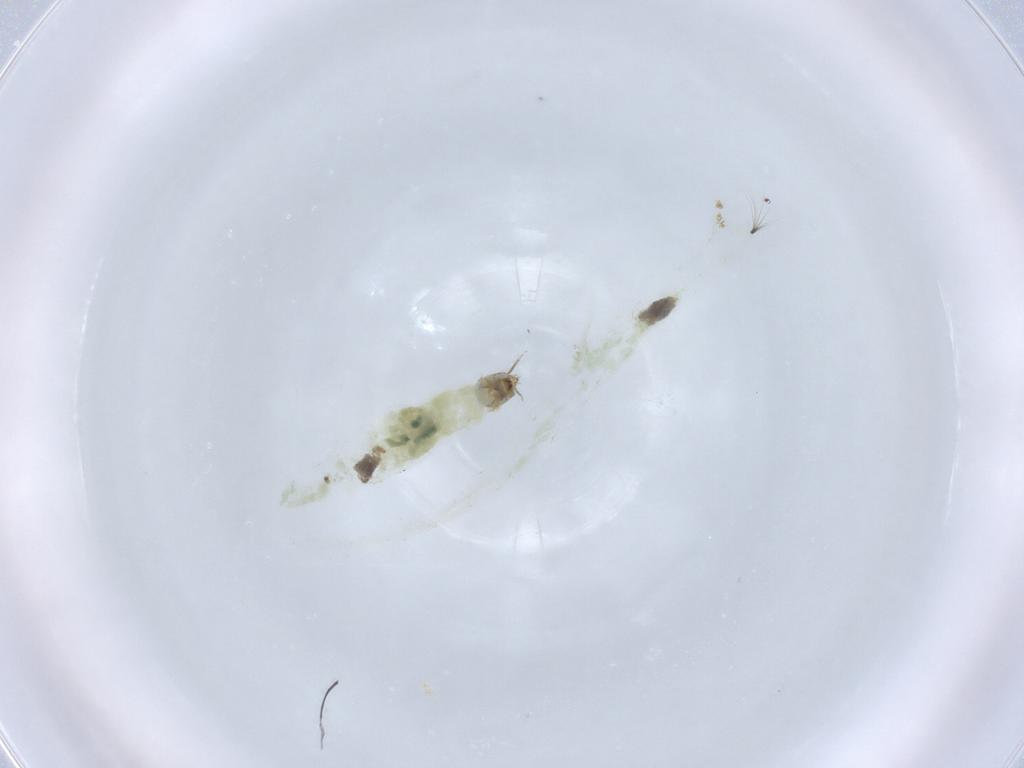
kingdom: Animalia
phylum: Arthropoda
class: Insecta
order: Diptera
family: Chironomidae
